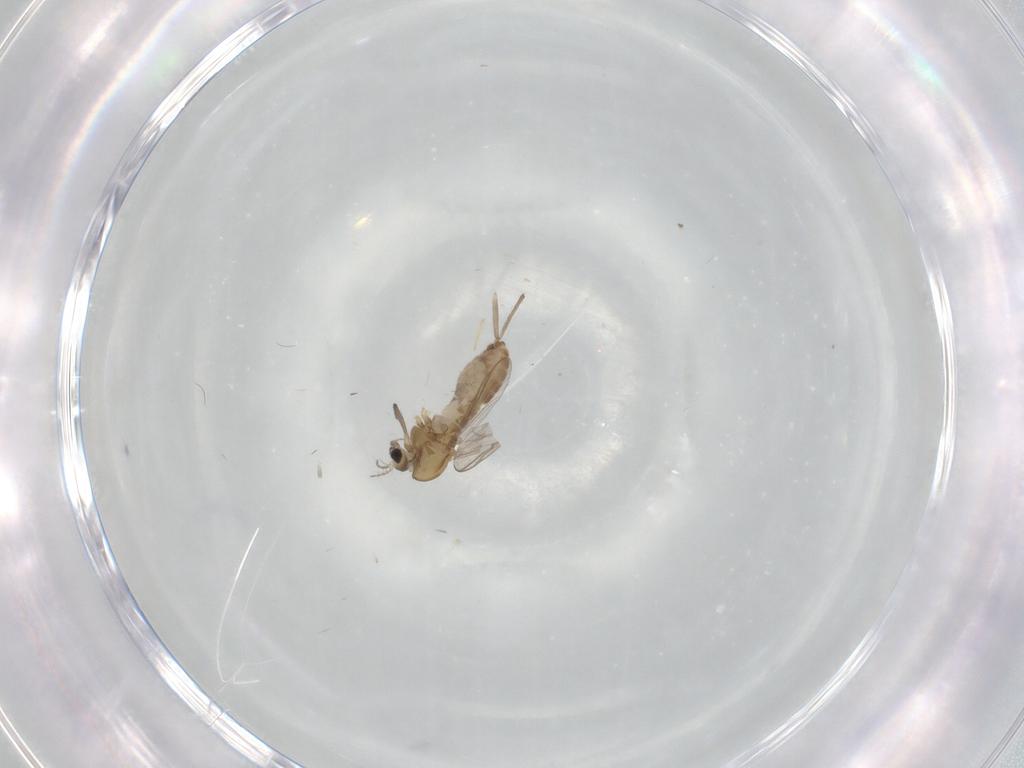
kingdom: Animalia
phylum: Arthropoda
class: Insecta
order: Diptera
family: Chironomidae
